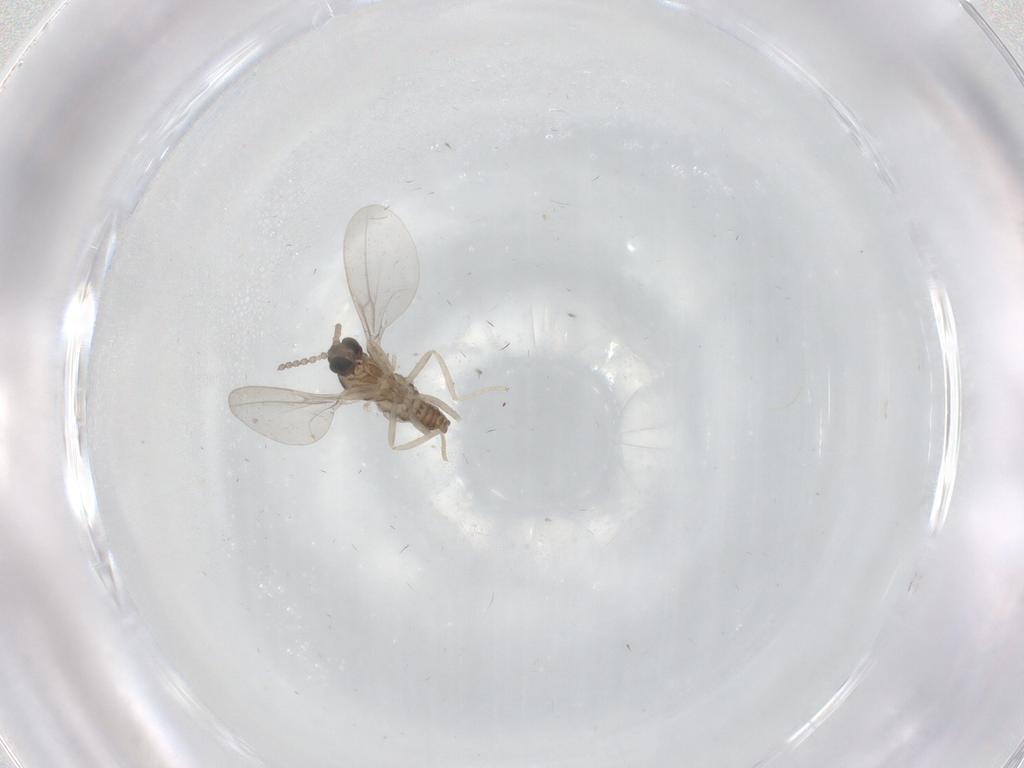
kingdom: Animalia
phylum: Arthropoda
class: Insecta
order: Diptera
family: Cecidomyiidae
